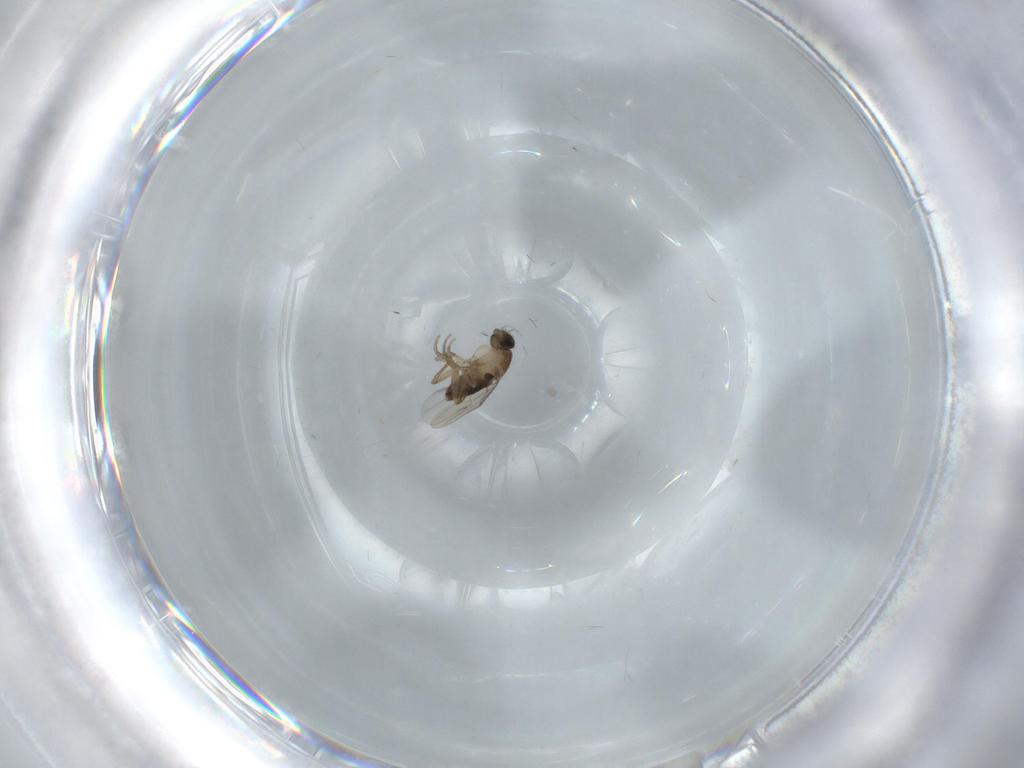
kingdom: Animalia
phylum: Arthropoda
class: Insecta
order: Diptera
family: Phoridae
